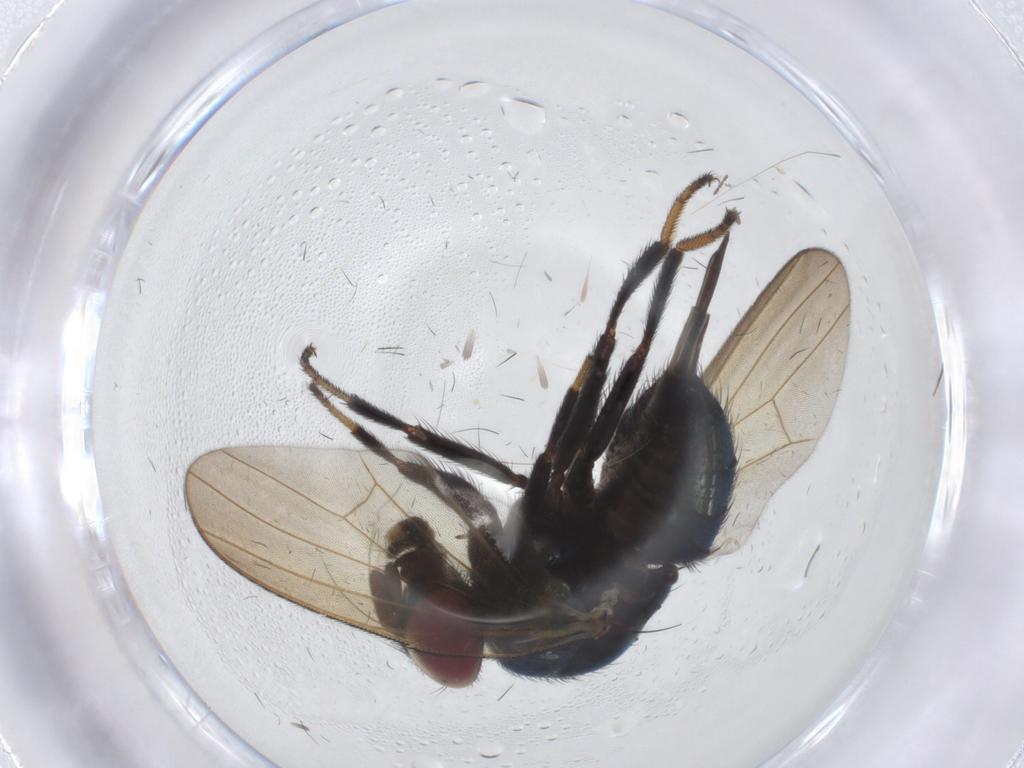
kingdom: Animalia
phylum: Arthropoda
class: Insecta
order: Diptera
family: Lonchaeidae
